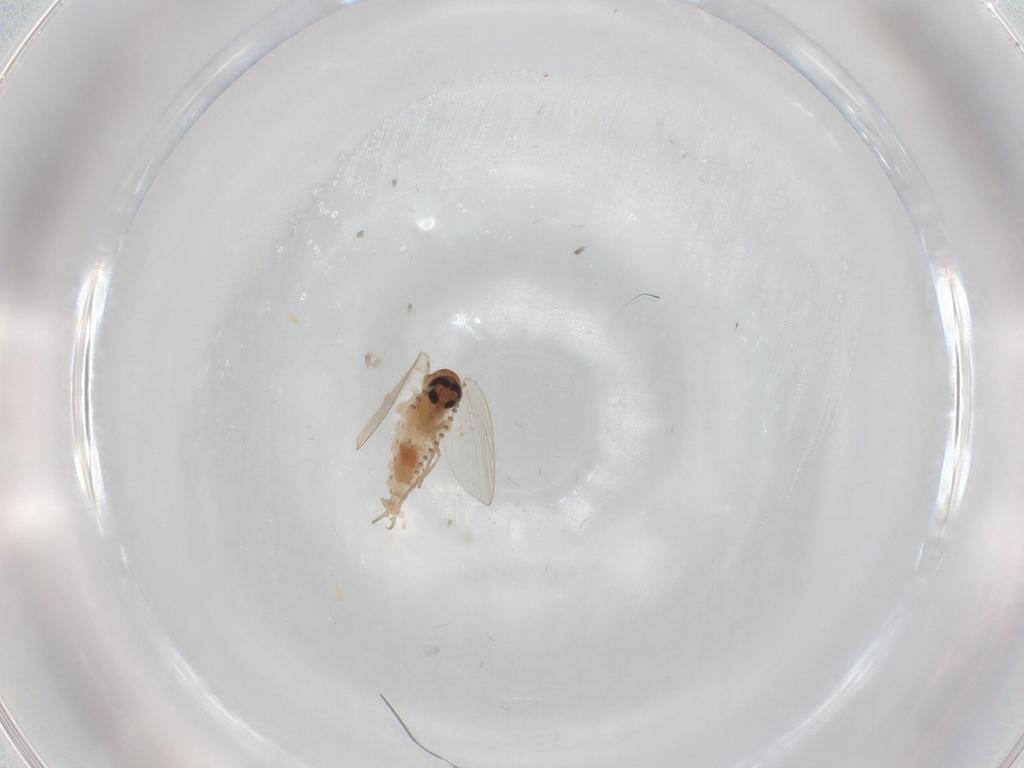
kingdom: Animalia
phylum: Arthropoda
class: Insecta
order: Diptera
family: Psychodidae
